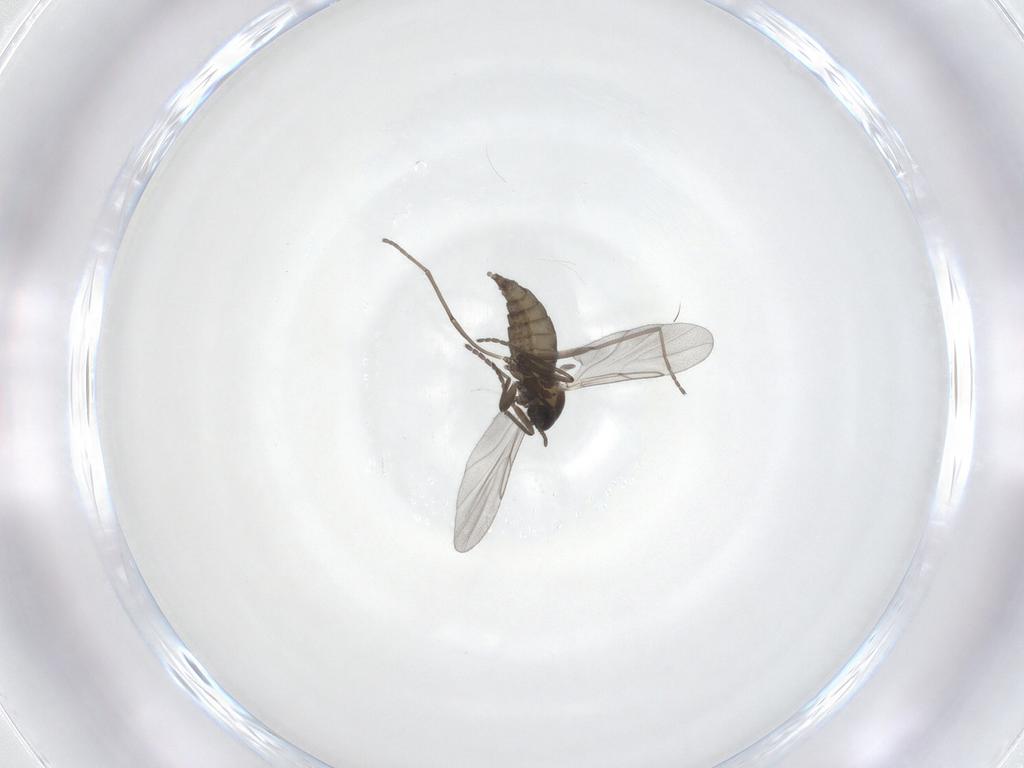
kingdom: Animalia
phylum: Arthropoda
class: Insecta
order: Diptera
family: Cecidomyiidae
